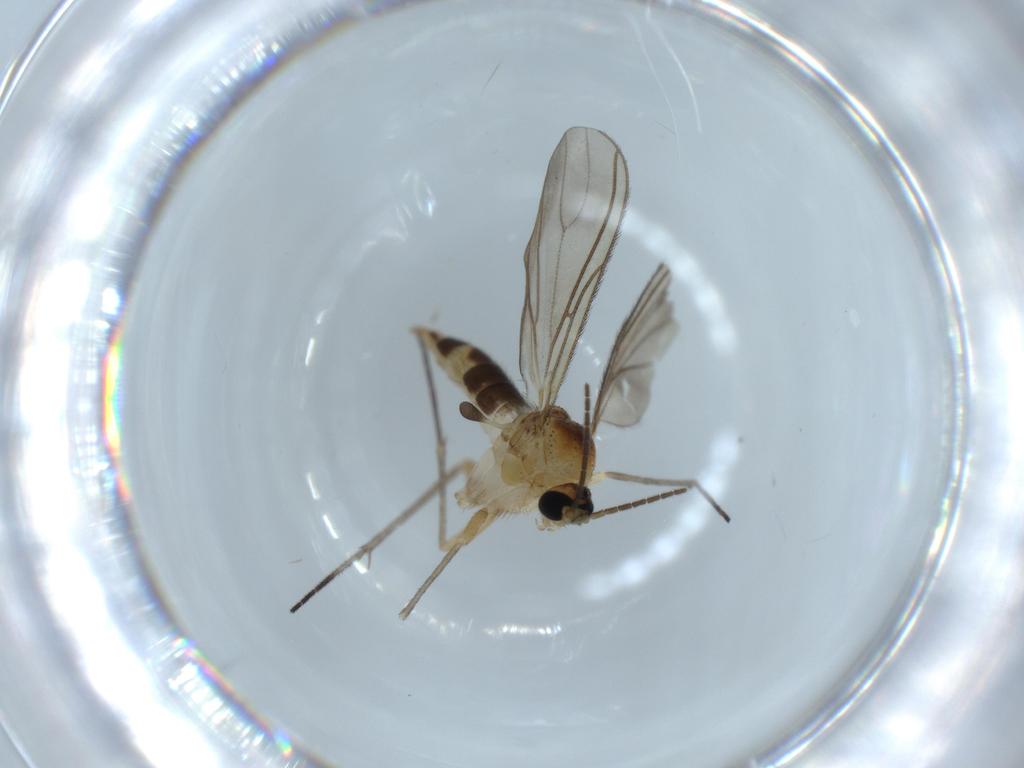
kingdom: Animalia
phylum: Arthropoda
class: Insecta
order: Diptera
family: Sciaridae
